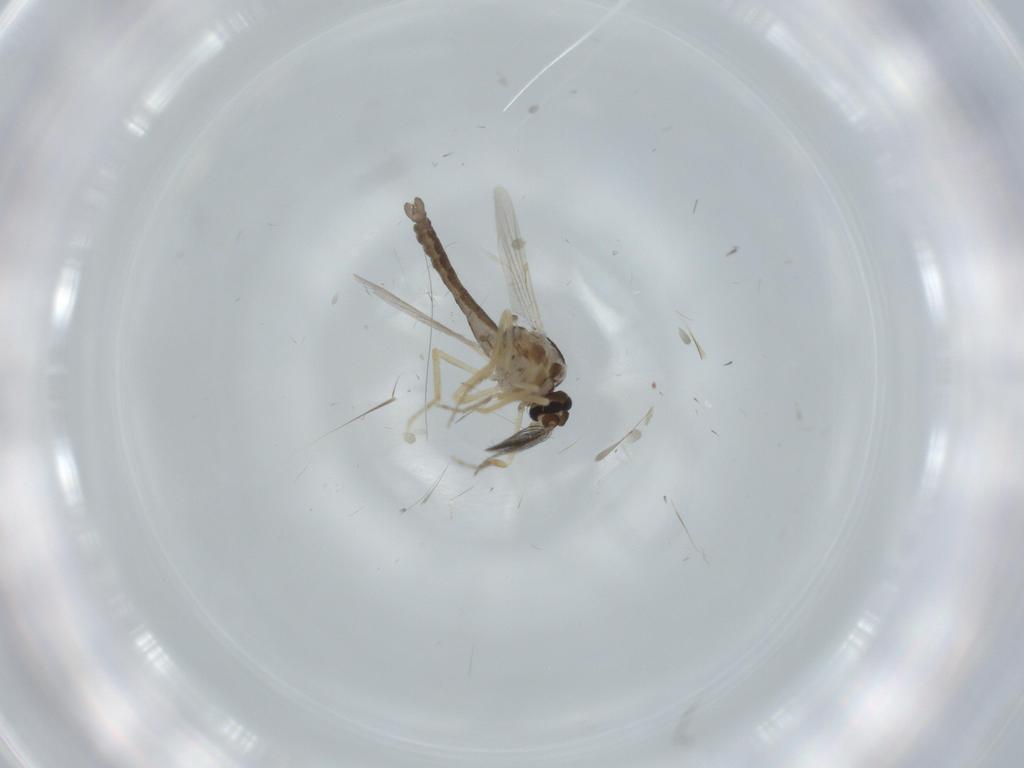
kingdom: Animalia
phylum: Arthropoda
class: Insecta
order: Diptera
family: Ceratopogonidae
